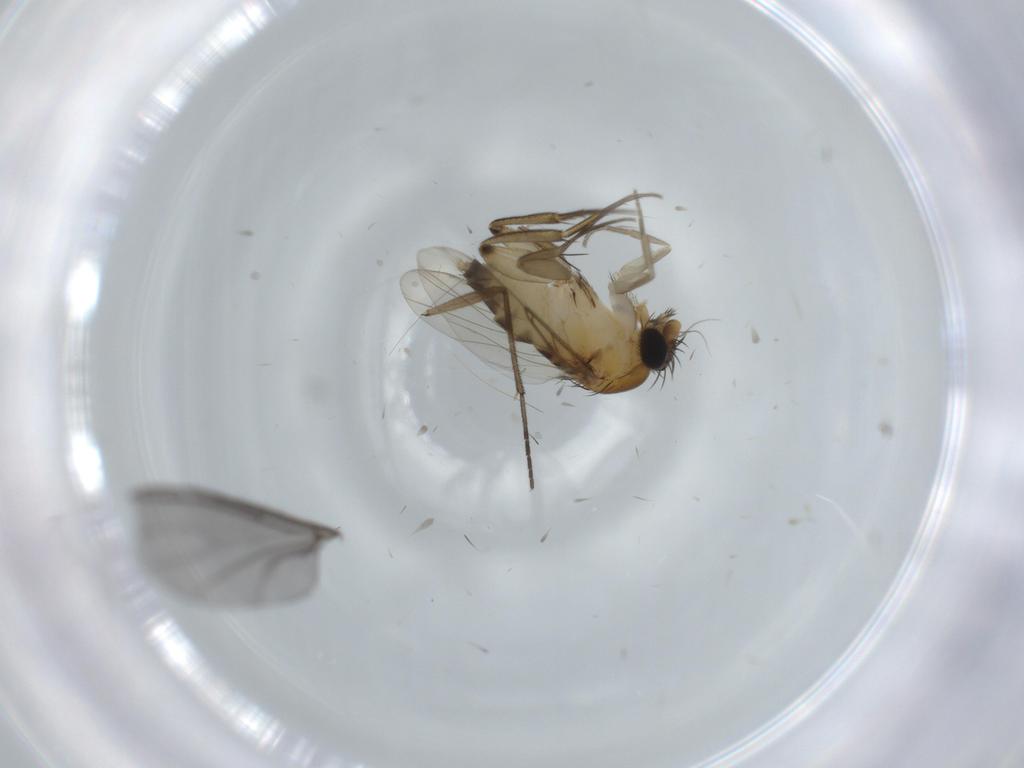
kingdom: Animalia
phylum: Arthropoda
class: Insecta
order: Diptera
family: Phoridae
